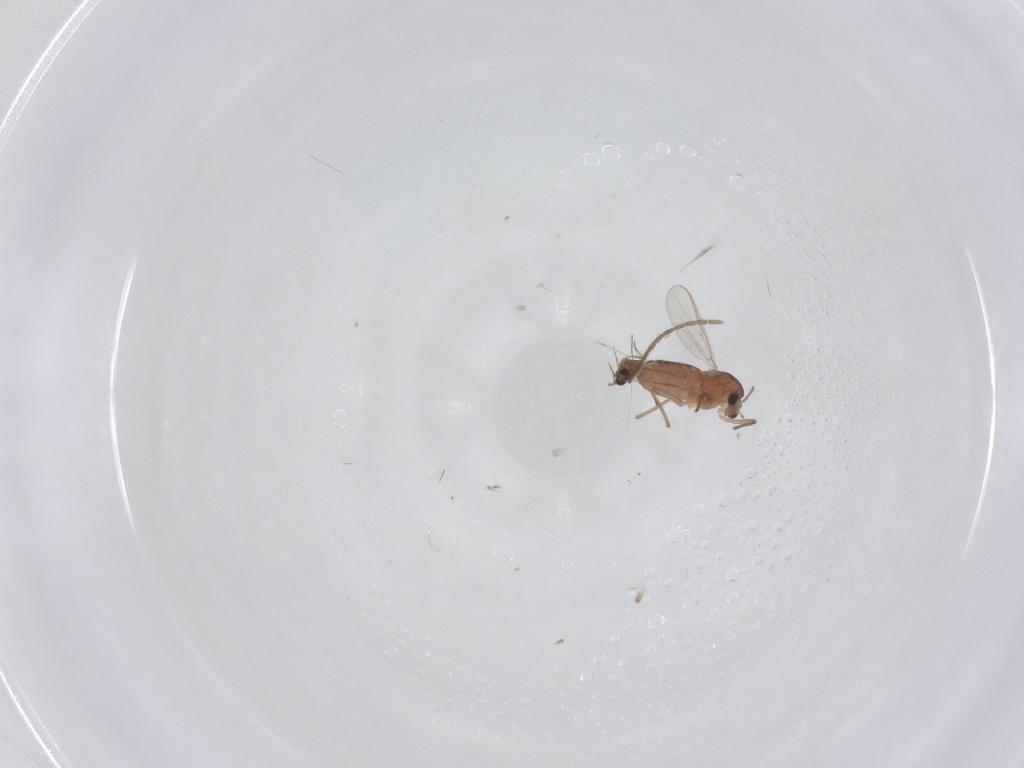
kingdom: Animalia
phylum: Arthropoda
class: Insecta
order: Diptera
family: Chironomidae
